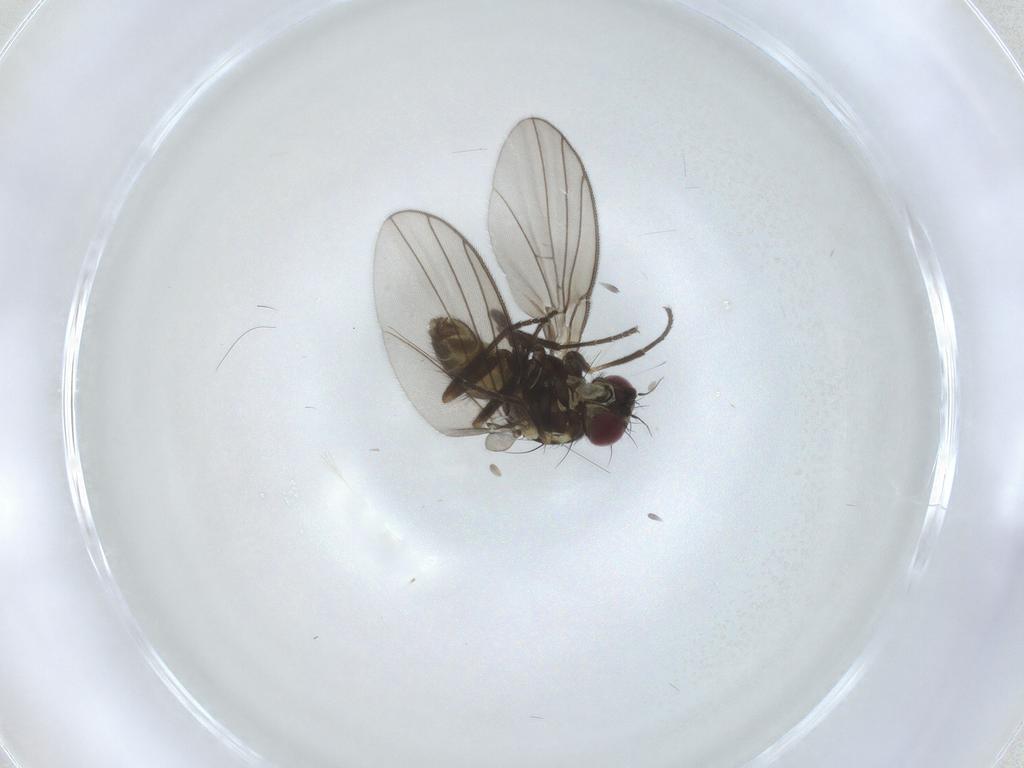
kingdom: Animalia
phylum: Arthropoda
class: Insecta
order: Diptera
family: Agromyzidae
